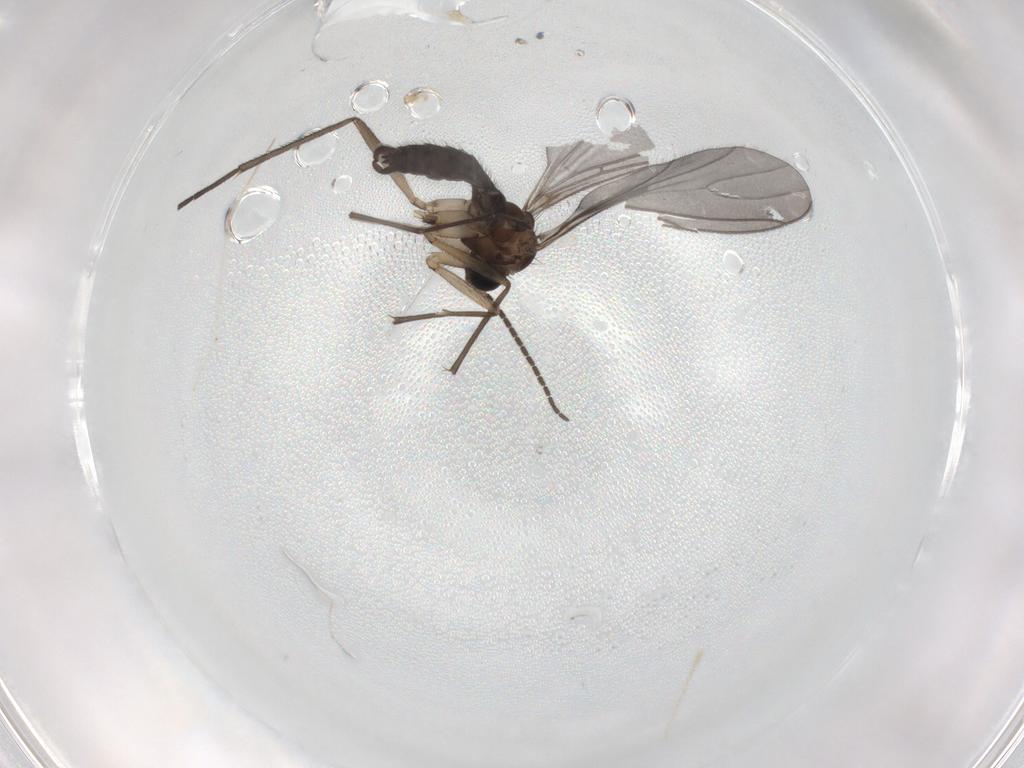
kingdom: Animalia
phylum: Arthropoda
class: Insecta
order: Diptera
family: Sciaridae
